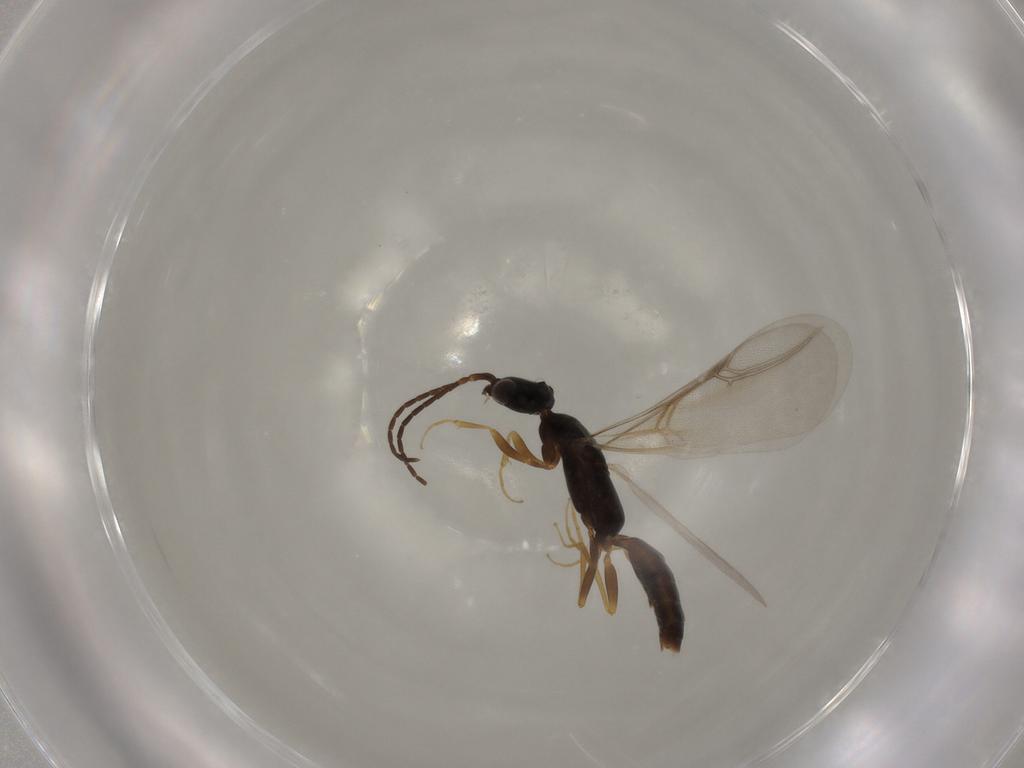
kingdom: Animalia
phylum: Arthropoda
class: Insecta
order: Hymenoptera
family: Bethylidae
